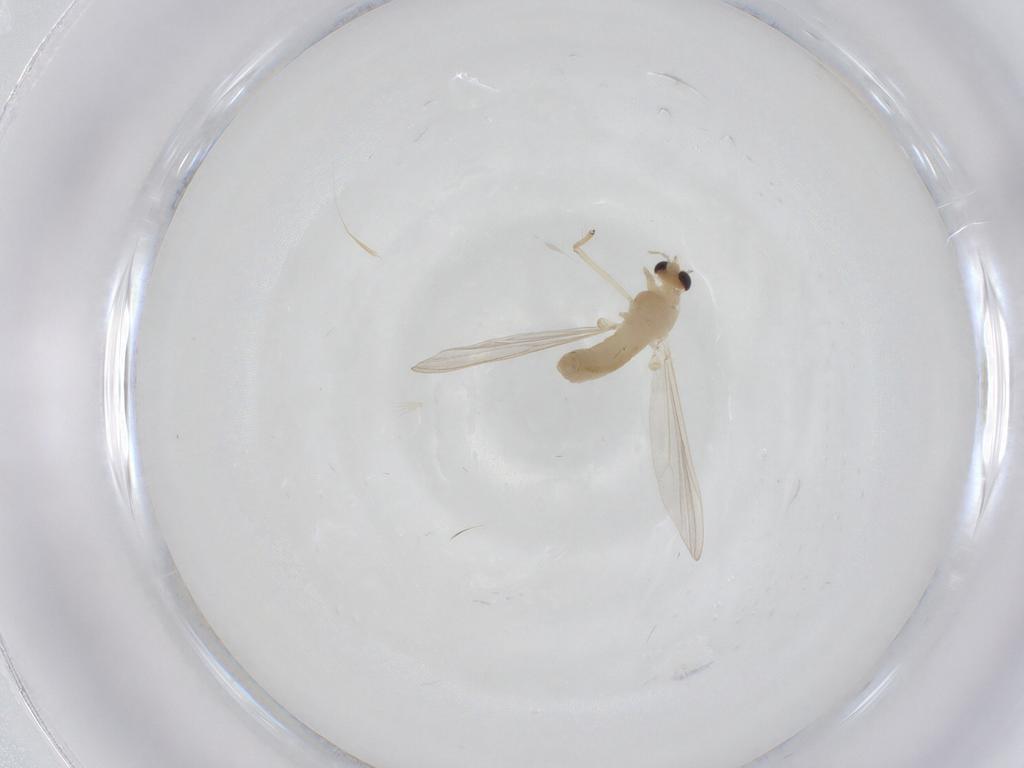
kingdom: Animalia
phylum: Arthropoda
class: Insecta
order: Diptera
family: Chironomidae
